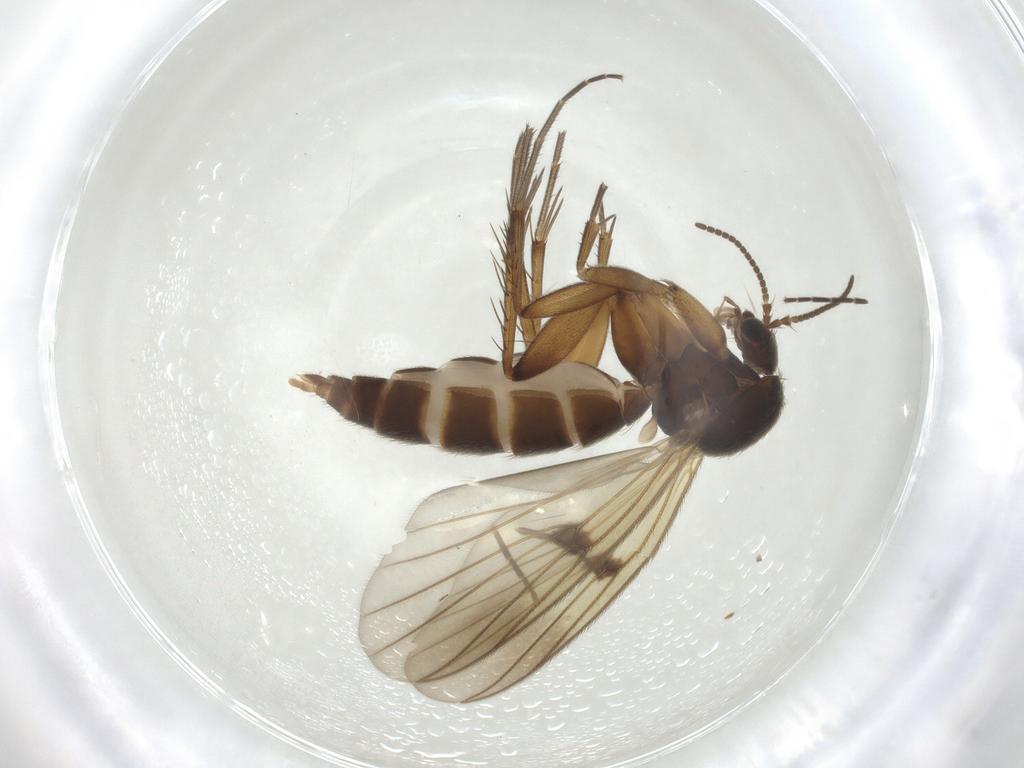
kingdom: Animalia
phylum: Arthropoda
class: Insecta
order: Diptera
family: Mycetophilidae
